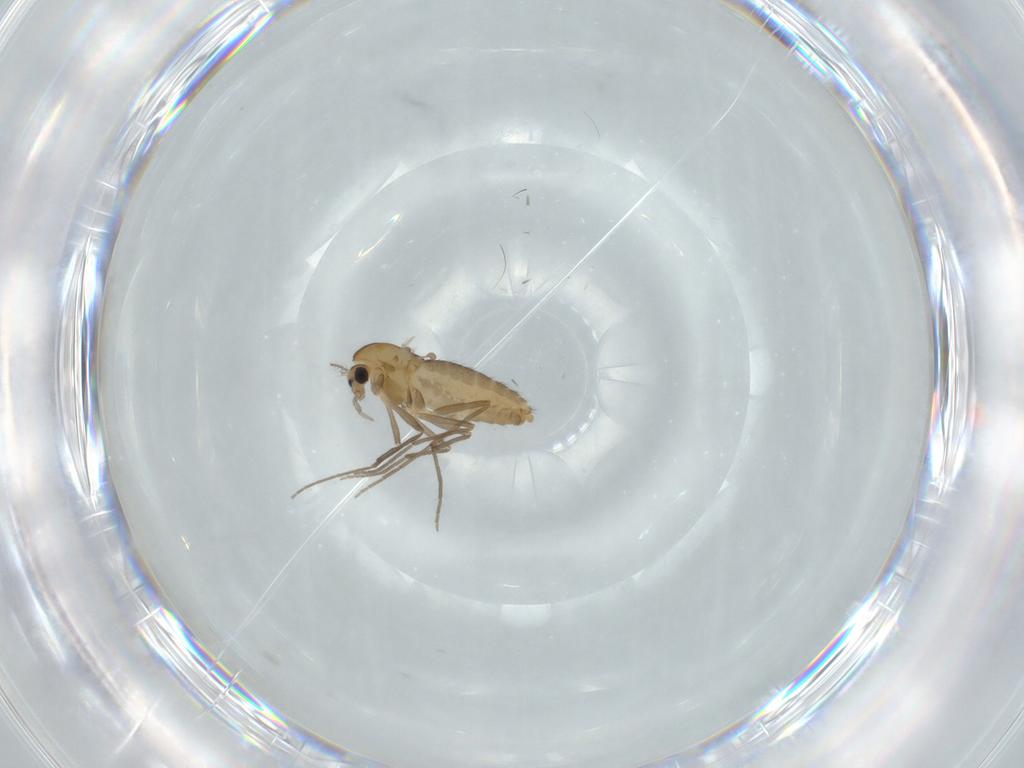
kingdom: Animalia
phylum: Arthropoda
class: Insecta
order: Diptera
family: Chironomidae
